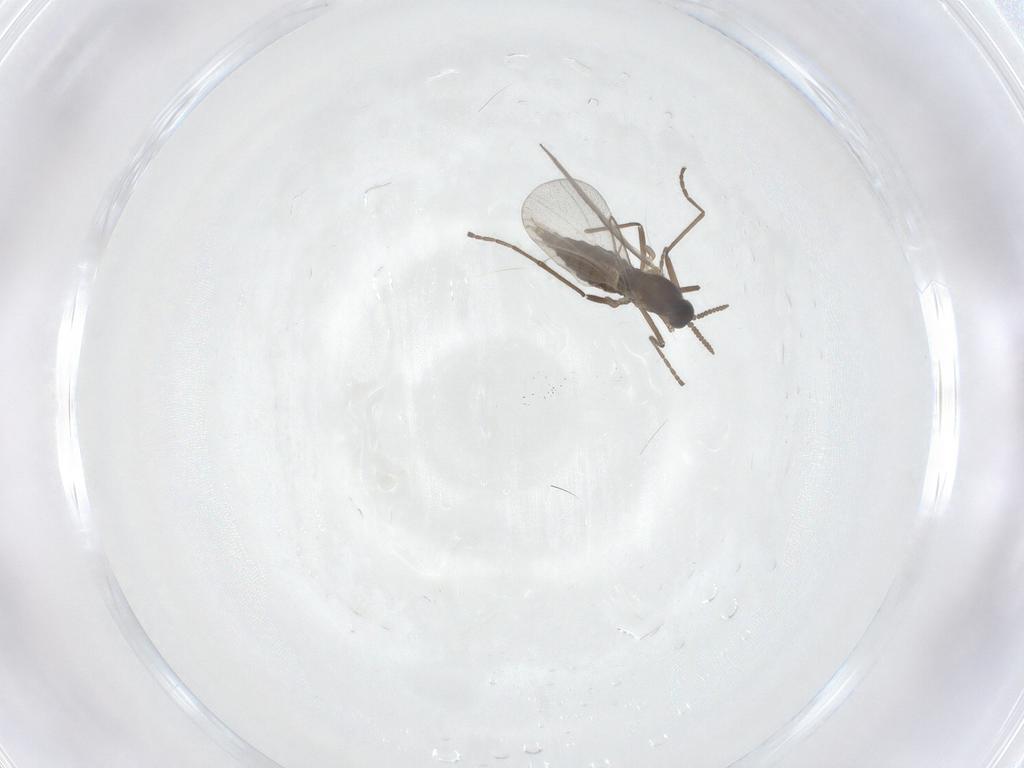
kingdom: Animalia
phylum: Arthropoda
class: Insecta
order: Diptera
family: Cecidomyiidae
